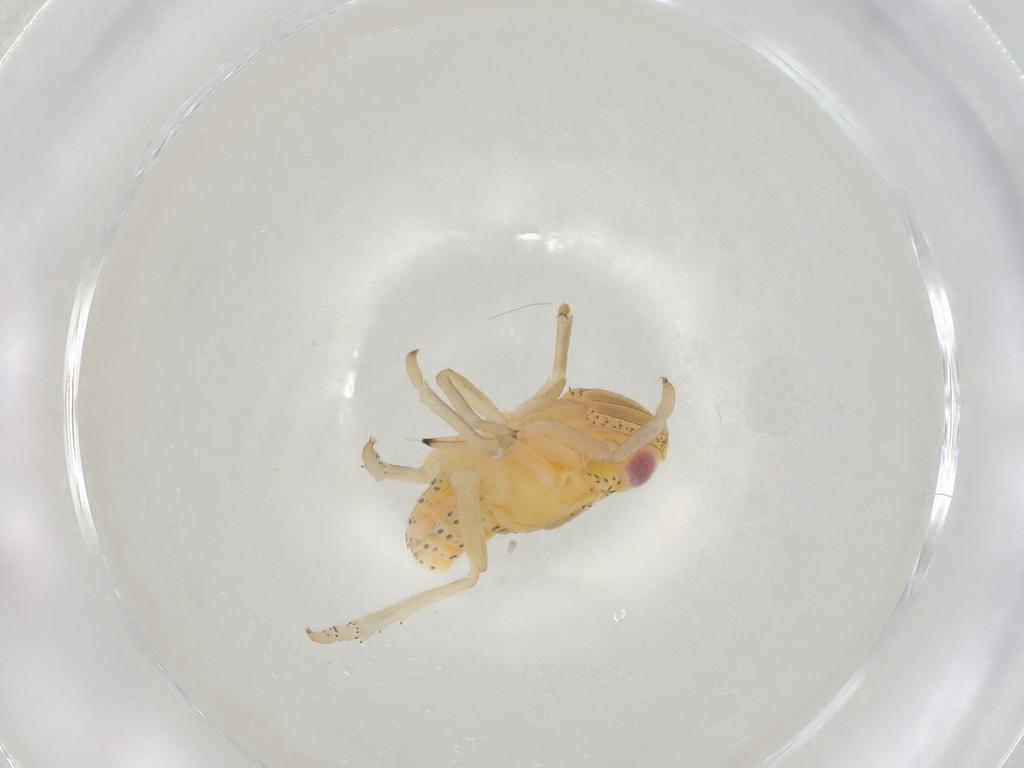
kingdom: Animalia
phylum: Arthropoda
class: Insecta
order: Hemiptera
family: Tropiduchidae
